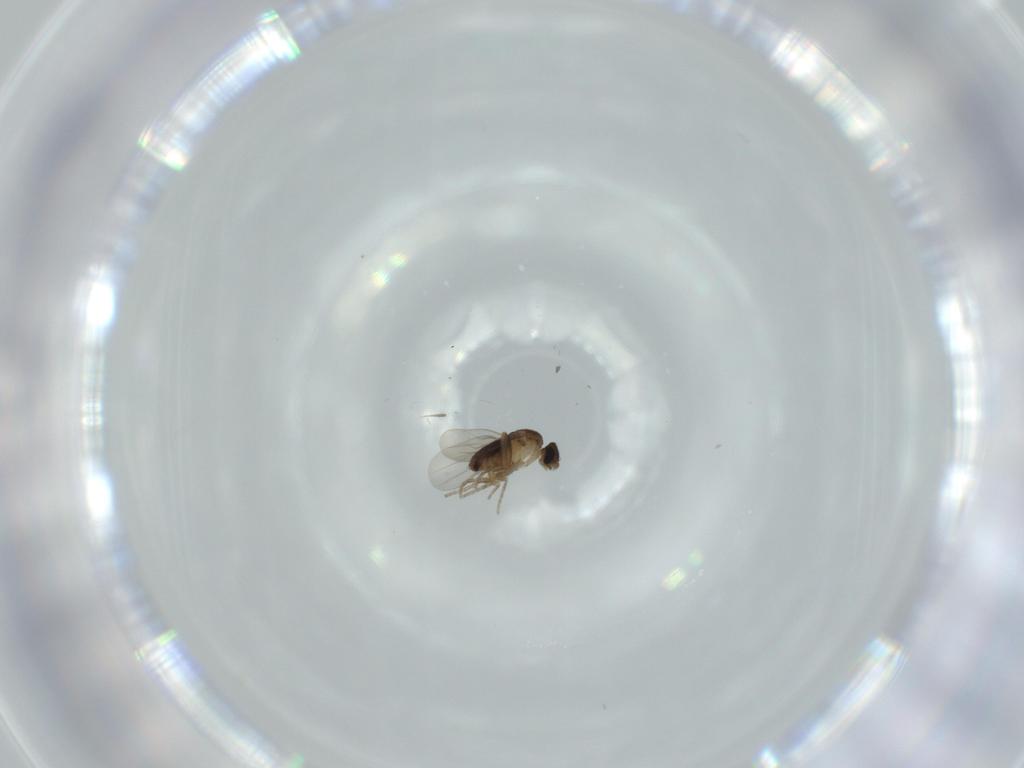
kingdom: Animalia
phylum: Arthropoda
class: Insecta
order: Diptera
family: Phoridae
